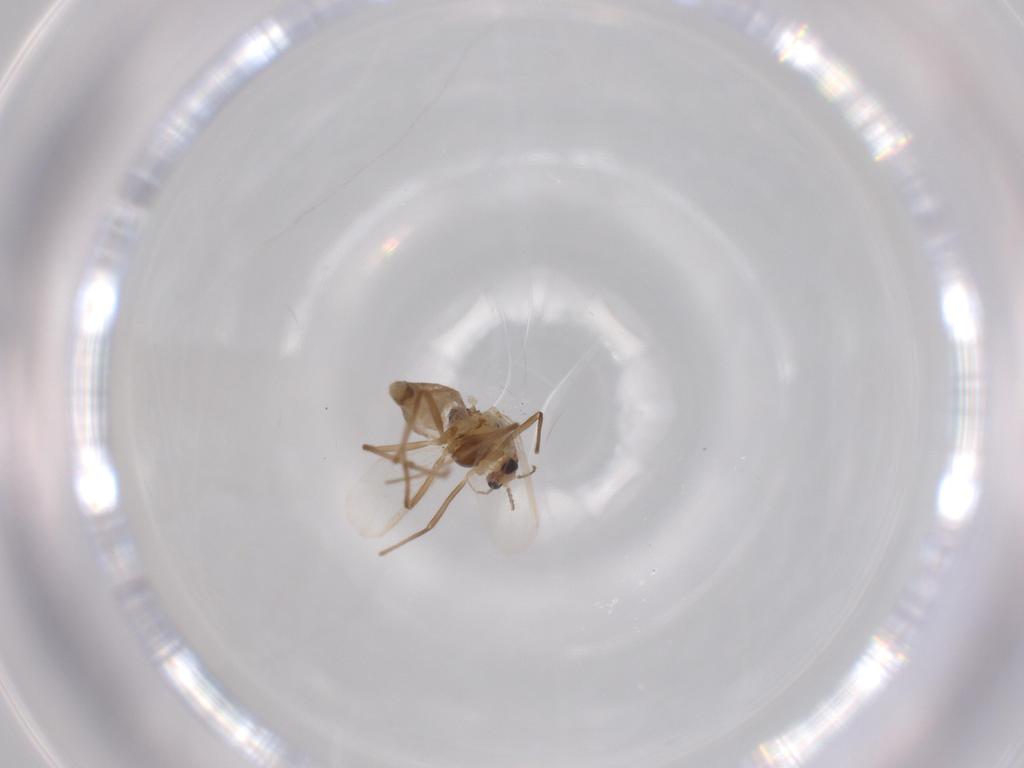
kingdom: Animalia
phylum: Arthropoda
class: Insecta
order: Diptera
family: Chironomidae
